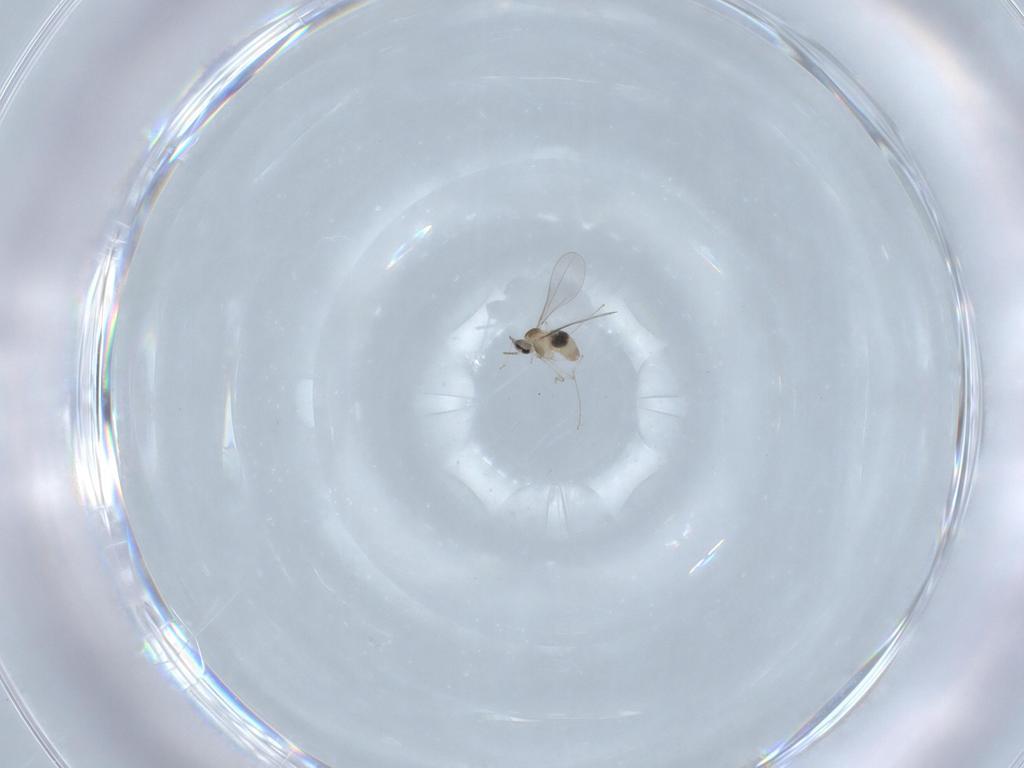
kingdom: Animalia
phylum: Arthropoda
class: Insecta
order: Diptera
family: Cecidomyiidae
